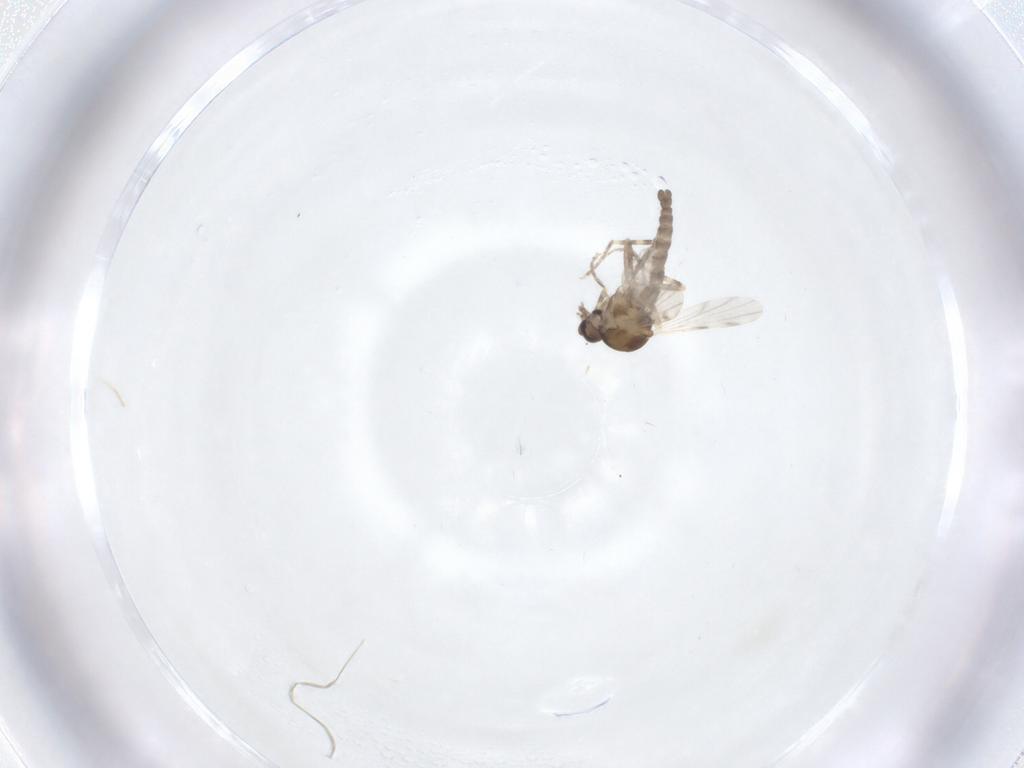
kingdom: Animalia
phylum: Arthropoda
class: Insecta
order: Diptera
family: Ceratopogonidae
